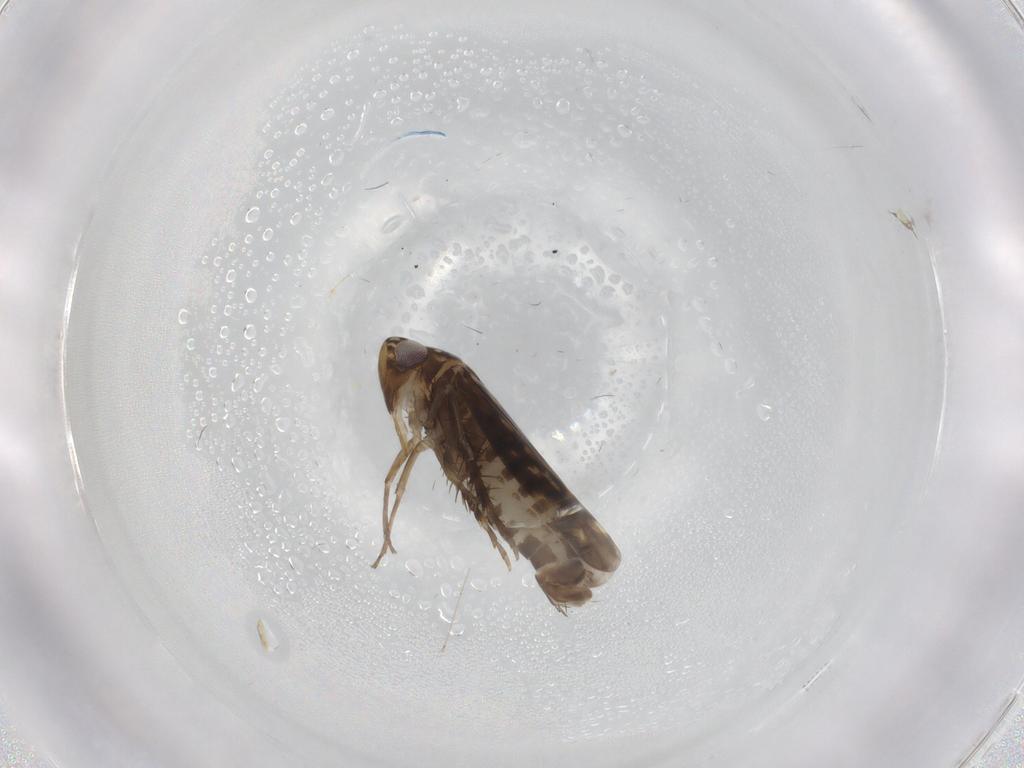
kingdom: Animalia
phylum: Arthropoda
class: Insecta
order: Hemiptera
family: Cicadellidae
